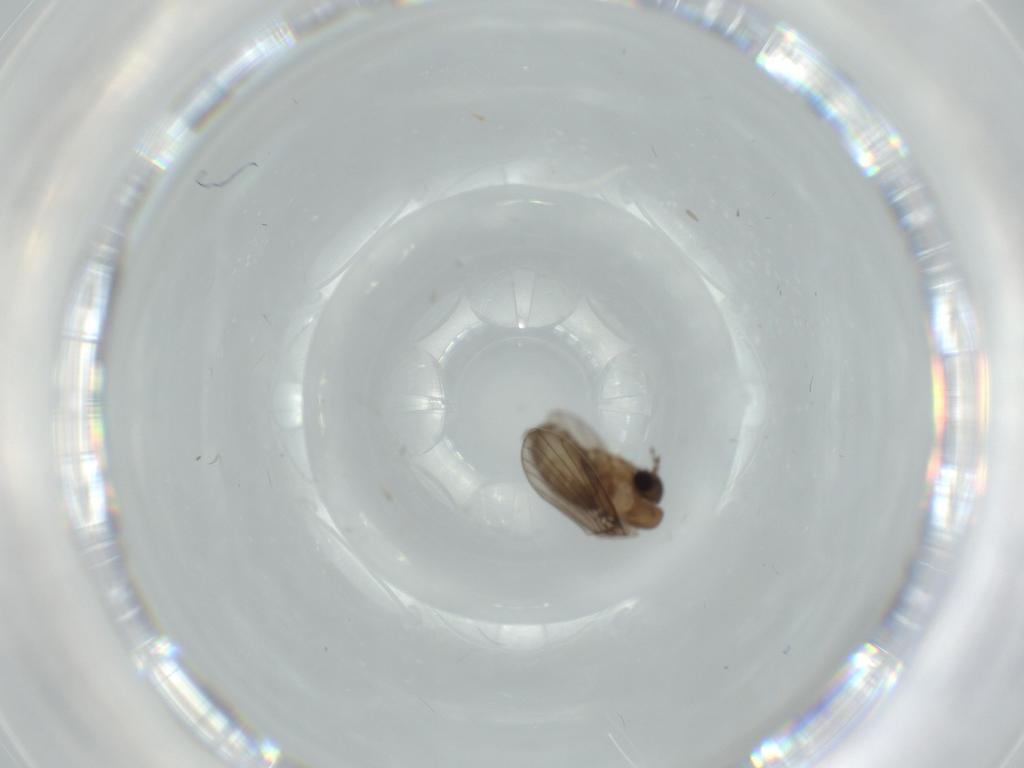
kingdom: Animalia
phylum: Arthropoda
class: Insecta
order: Diptera
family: Psychodidae
